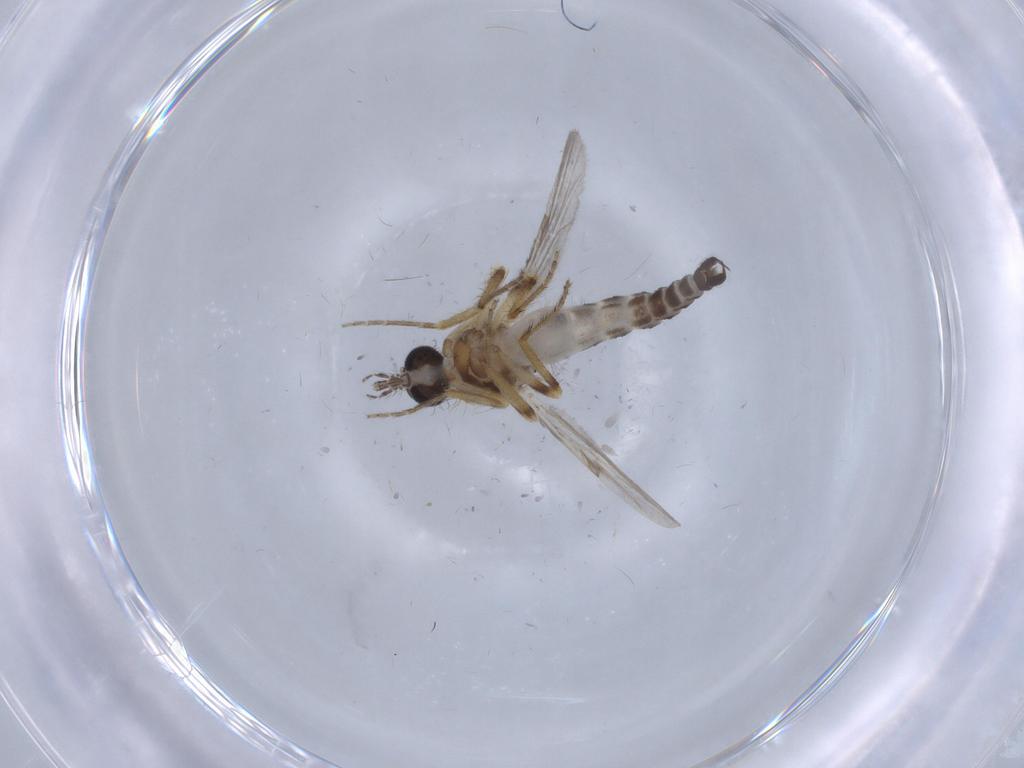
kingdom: Animalia
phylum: Arthropoda
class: Insecta
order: Diptera
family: Ceratopogonidae
